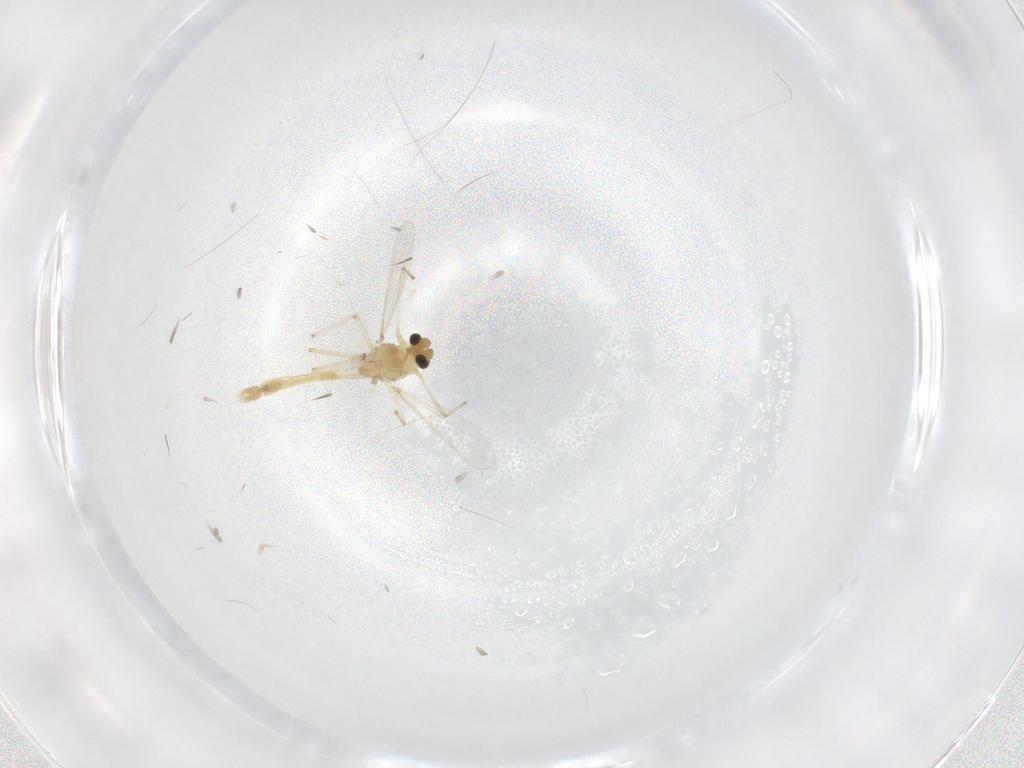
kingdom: Animalia
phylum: Arthropoda
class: Insecta
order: Diptera
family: Chironomidae
